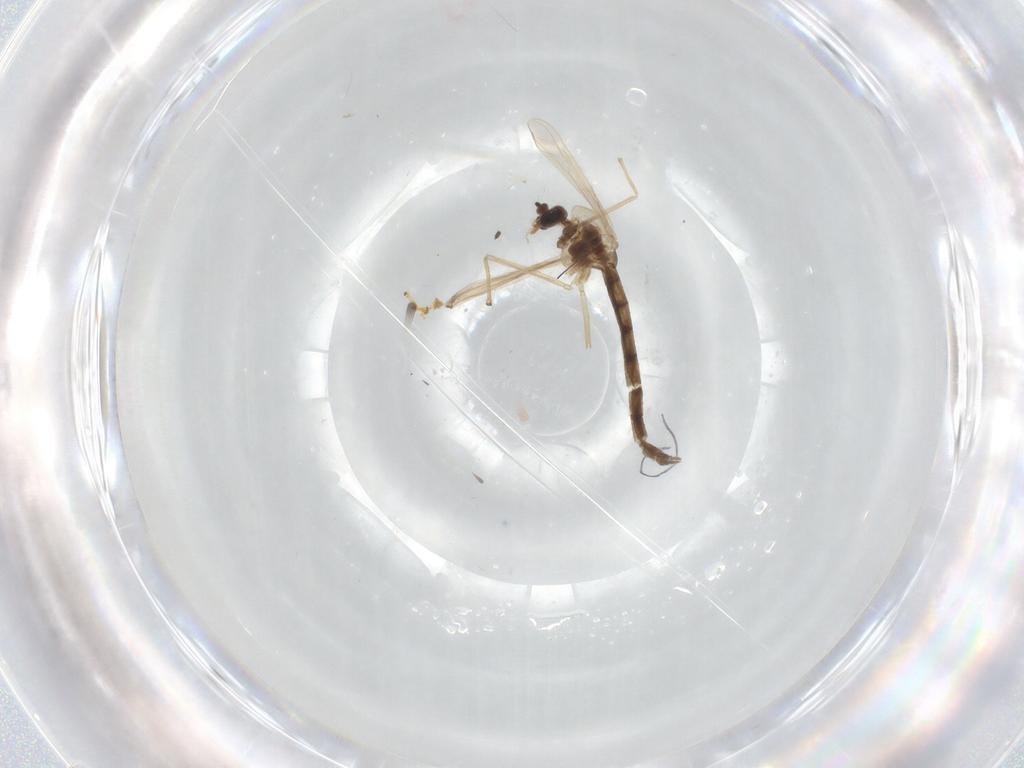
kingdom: Animalia
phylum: Arthropoda
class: Insecta
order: Diptera
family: Chironomidae
